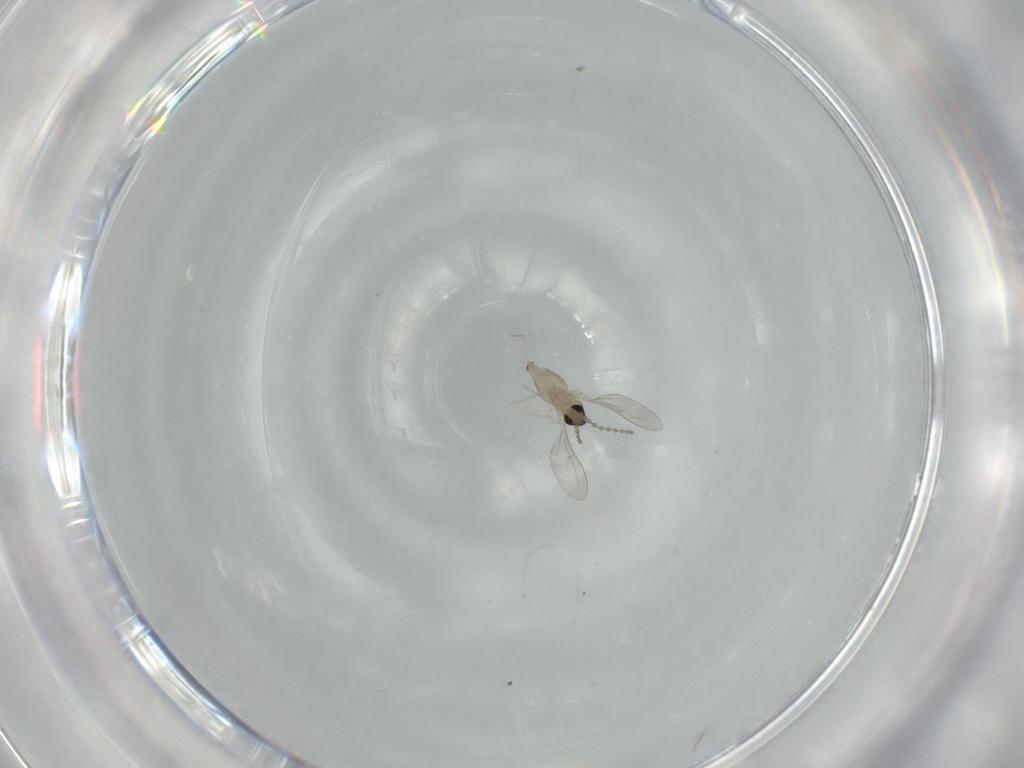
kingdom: Animalia
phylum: Arthropoda
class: Insecta
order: Diptera
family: Cecidomyiidae
